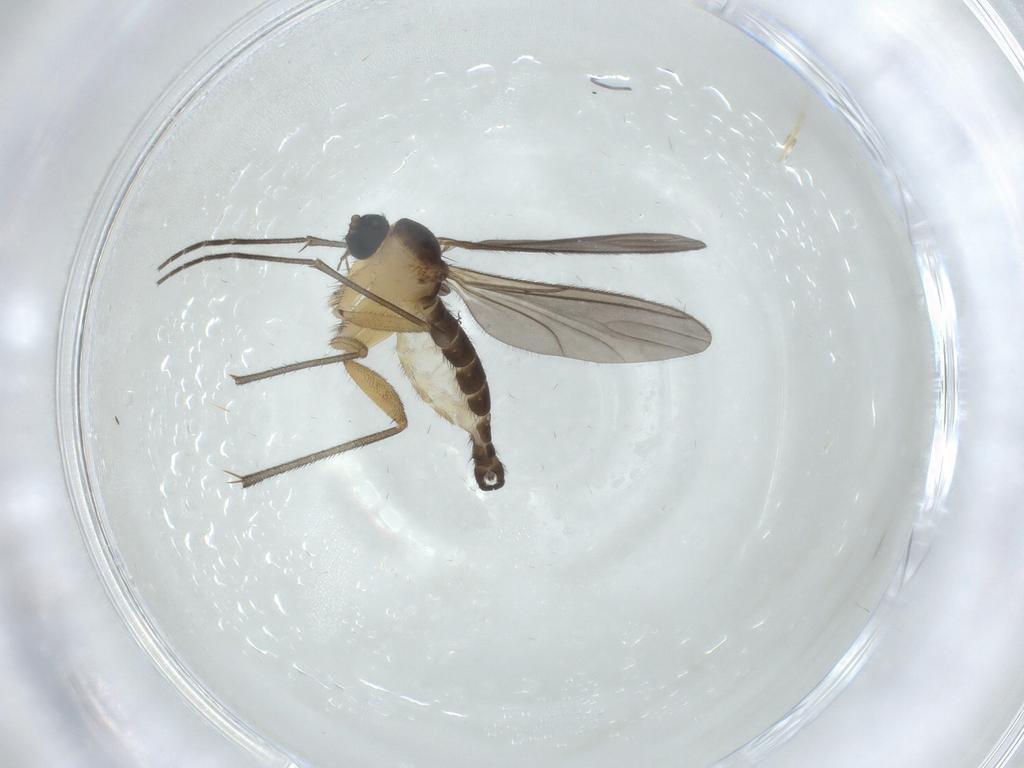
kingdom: Animalia
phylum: Arthropoda
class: Insecta
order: Diptera
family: Sciaridae
